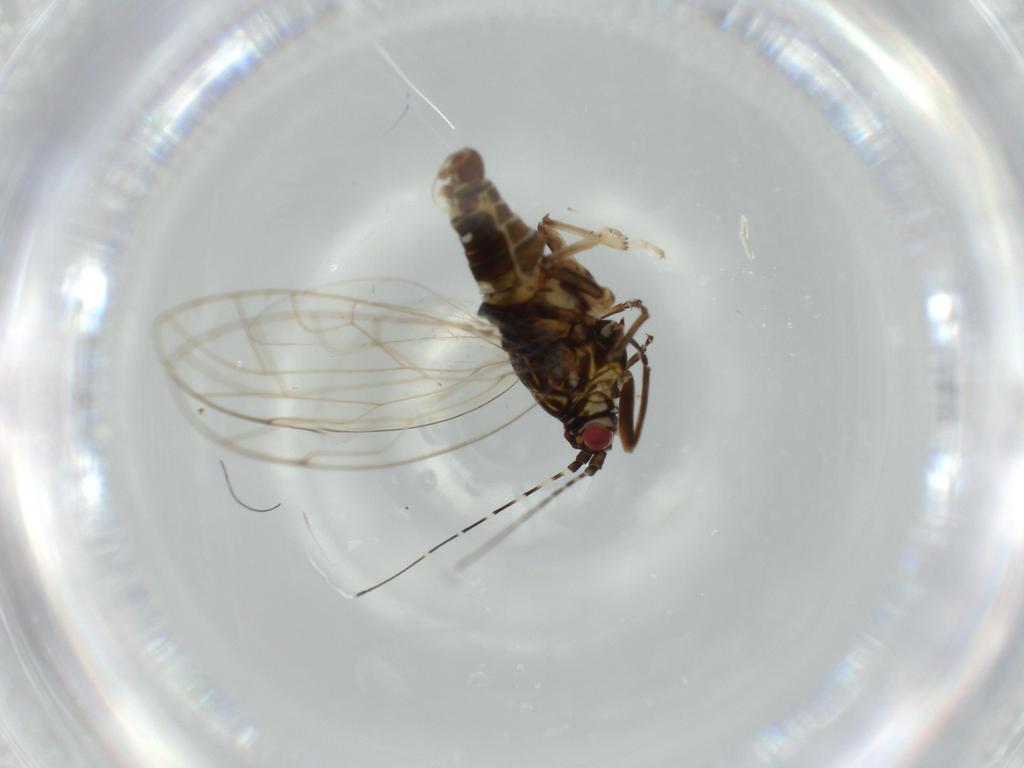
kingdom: Animalia
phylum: Arthropoda
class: Insecta
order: Hemiptera
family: Carsidaridae
